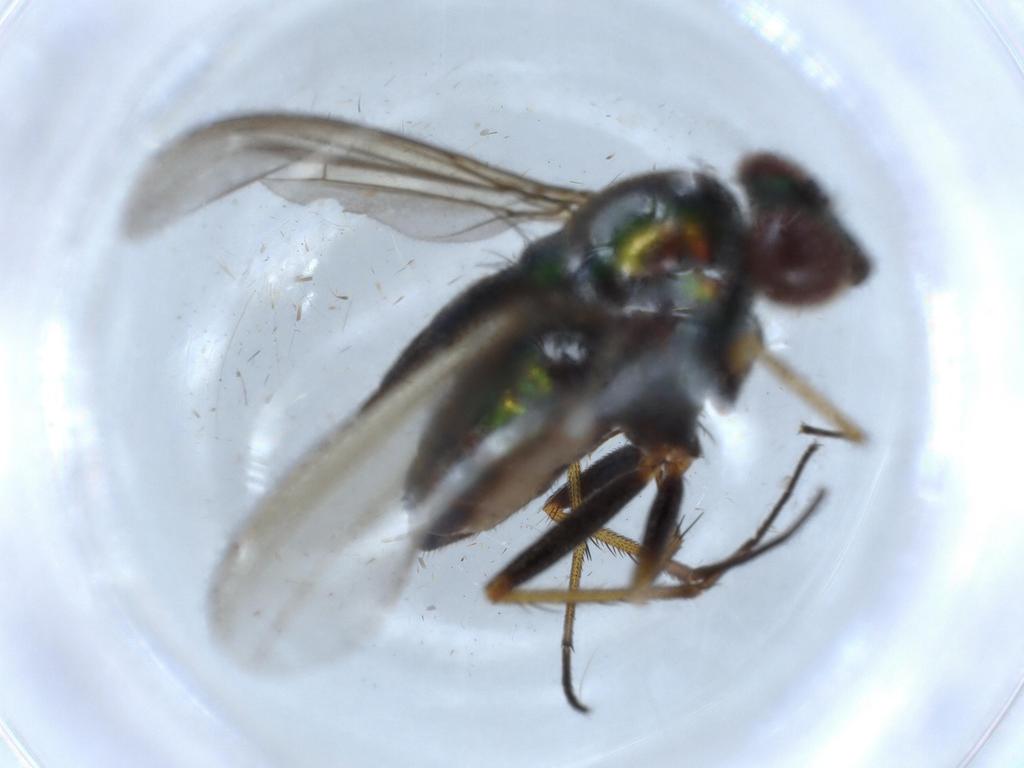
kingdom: Animalia
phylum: Arthropoda
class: Insecta
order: Diptera
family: Dolichopodidae
